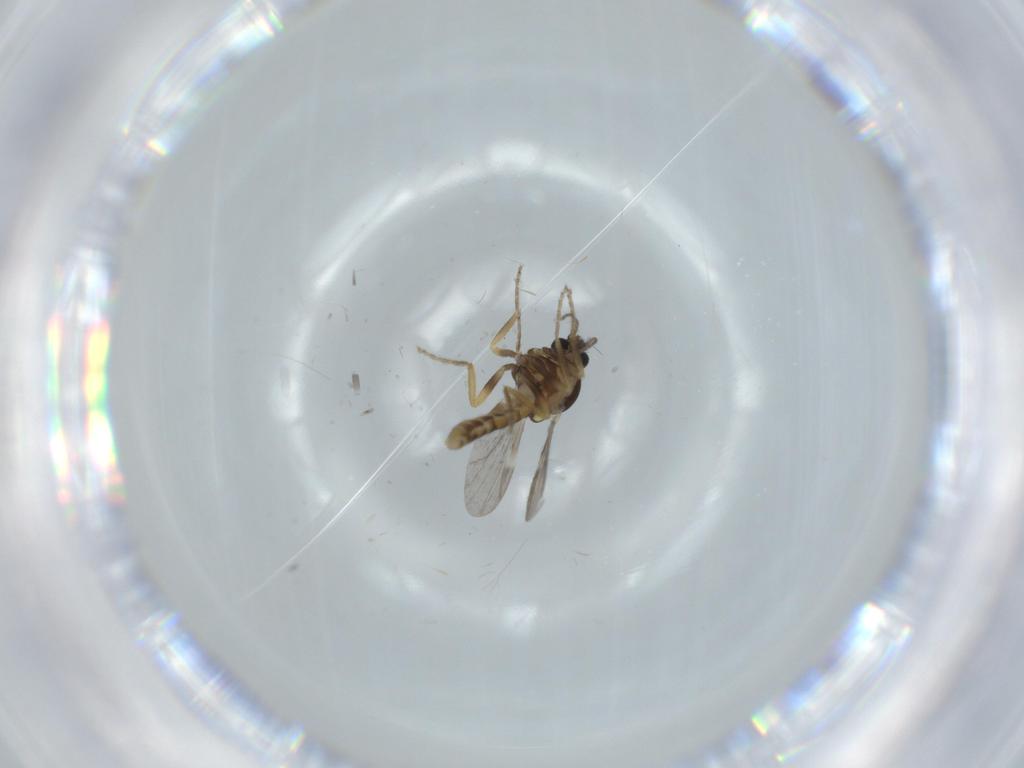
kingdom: Animalia
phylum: Arthropoda
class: Insecta
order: Diptera
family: Ceratopogonidae
